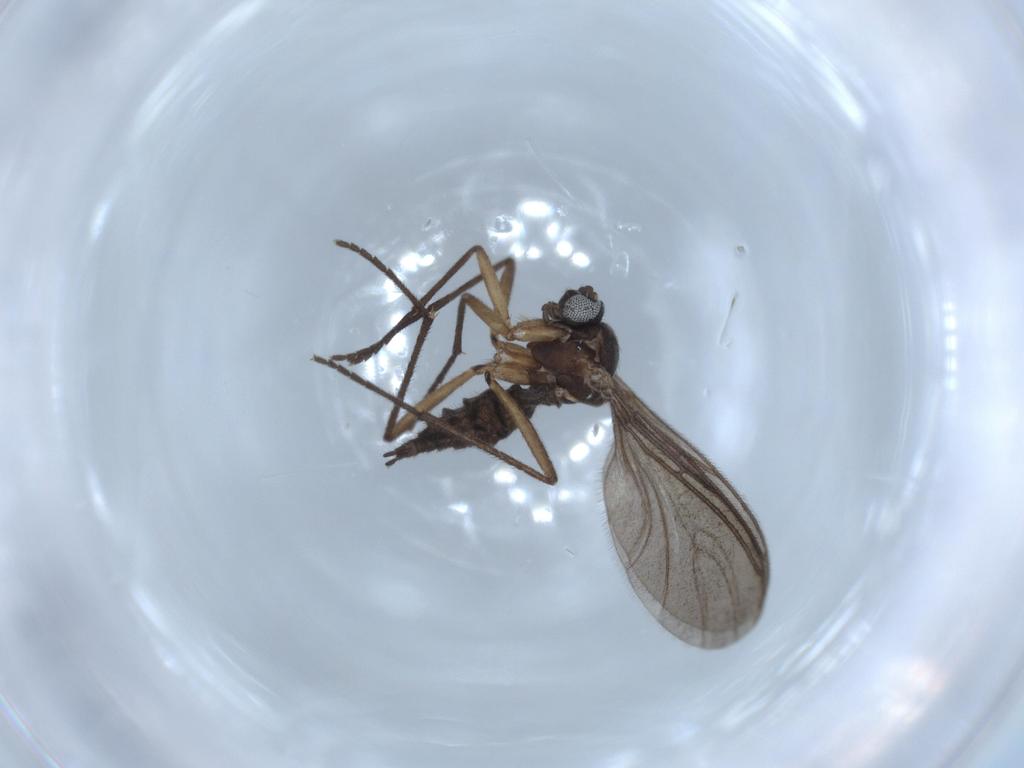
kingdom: Animalia
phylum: Arthropoda
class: Insecta
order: Diptera
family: Sciaridae
